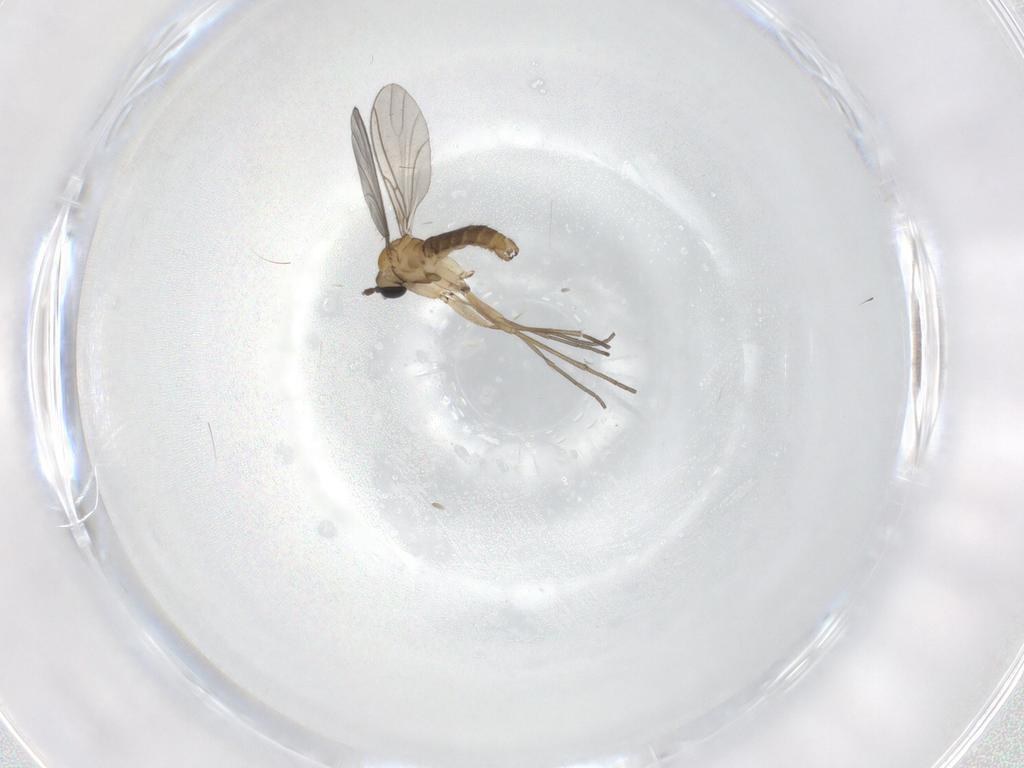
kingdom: Animalia
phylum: Arthropoda
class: Insecta
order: Diptera
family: Sciaridae
